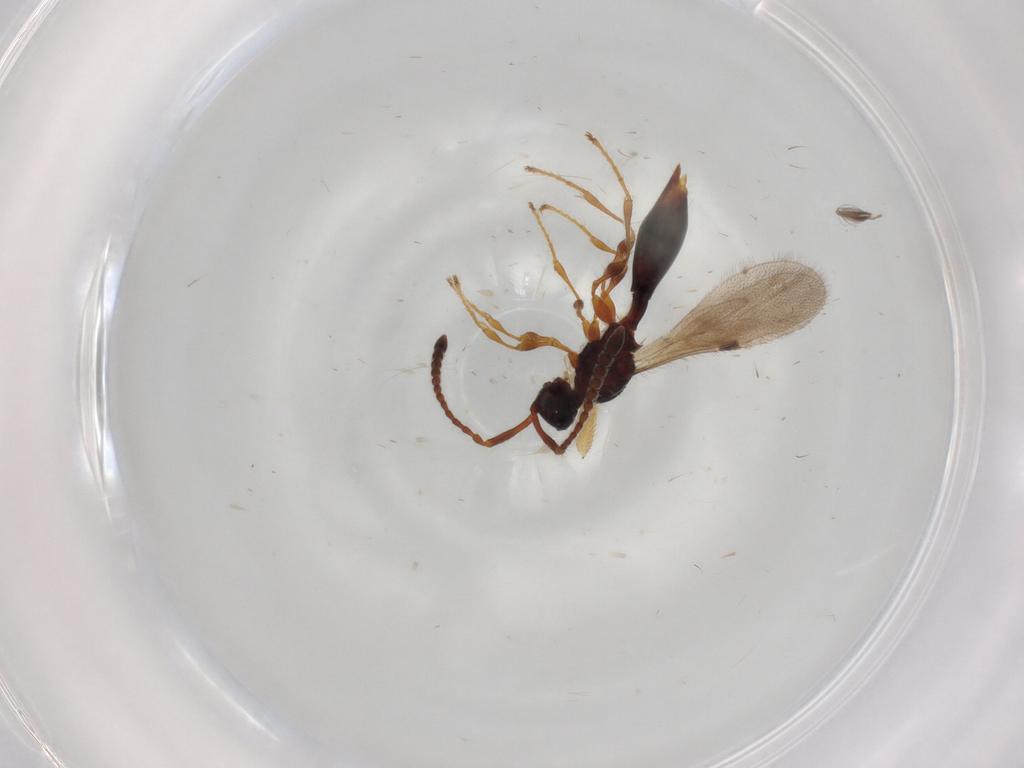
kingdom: Animalia
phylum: Arthropoda
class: Insecta
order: Hymenoptera
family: Diapriidae
